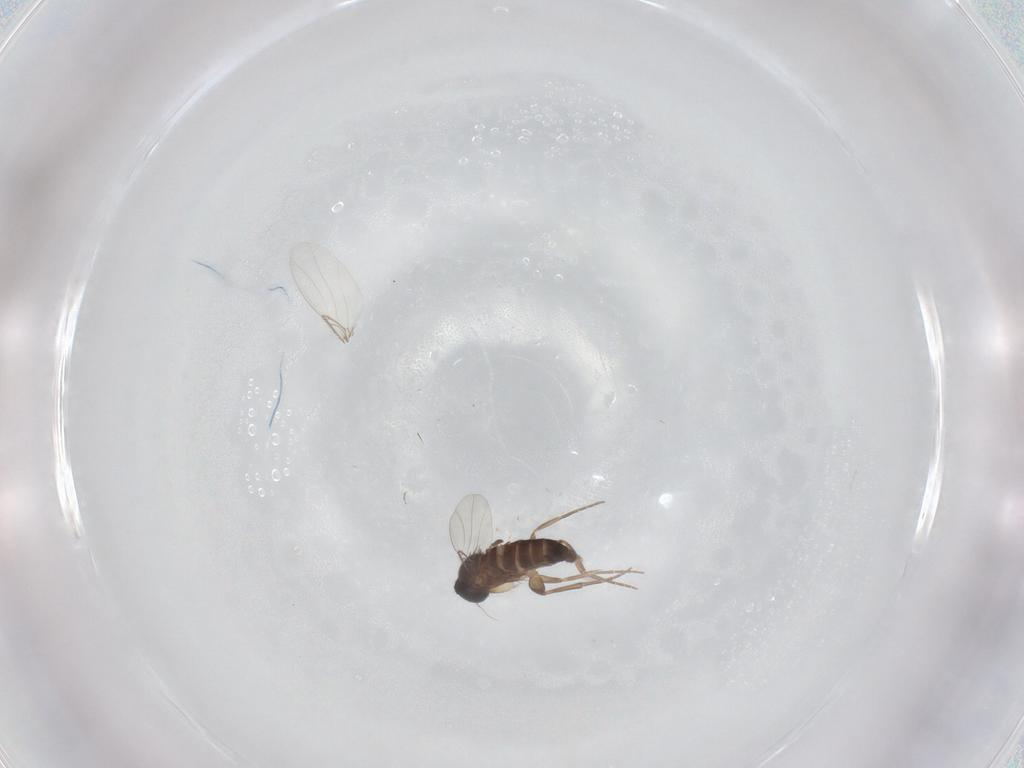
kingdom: Animalia
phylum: Arthropoda
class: Insecta
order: Diptera
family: Phoridae
